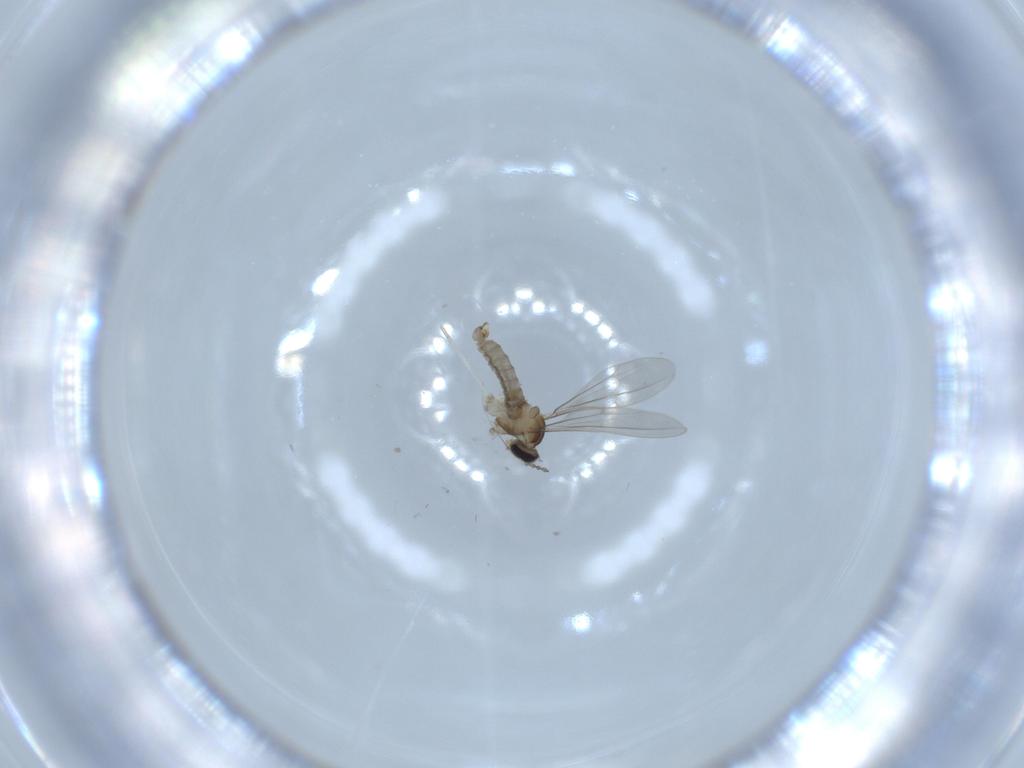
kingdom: Animalia
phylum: Arthropoda
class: Insecta
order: Diptera
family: Cecidomyiidae
